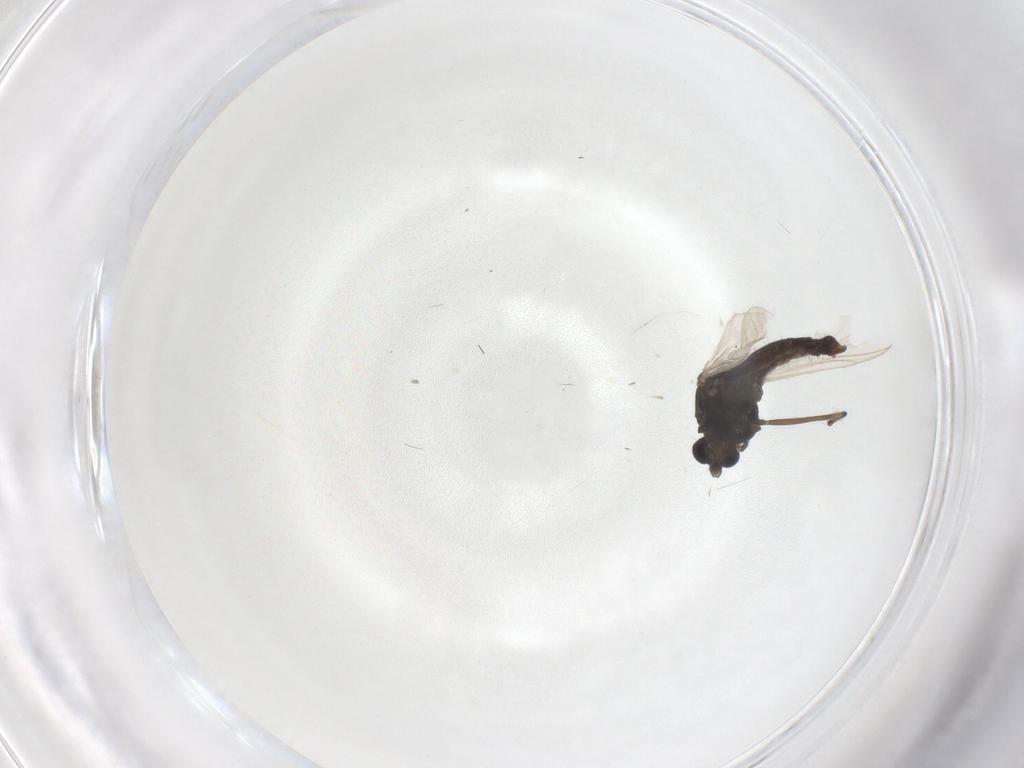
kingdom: Animalia
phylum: Arthropoda
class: Insecta
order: Diptera
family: Chironomidae
